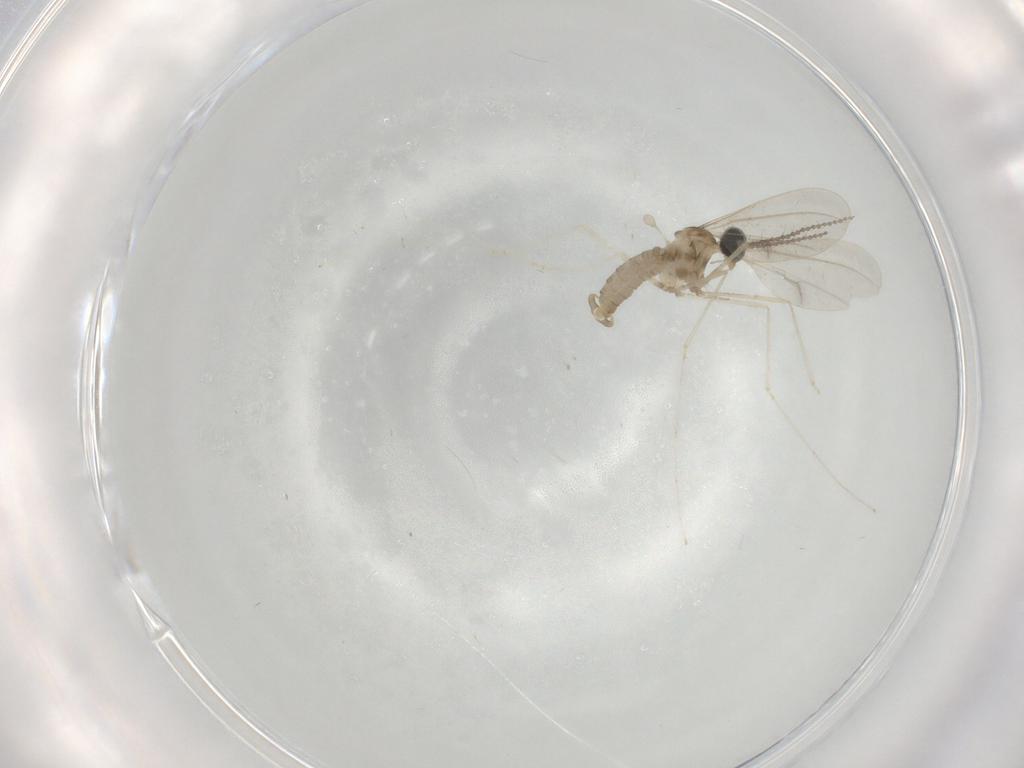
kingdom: Animalia
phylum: Arthropoda
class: Insecta
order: Diptera
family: Cecidomyiidae
